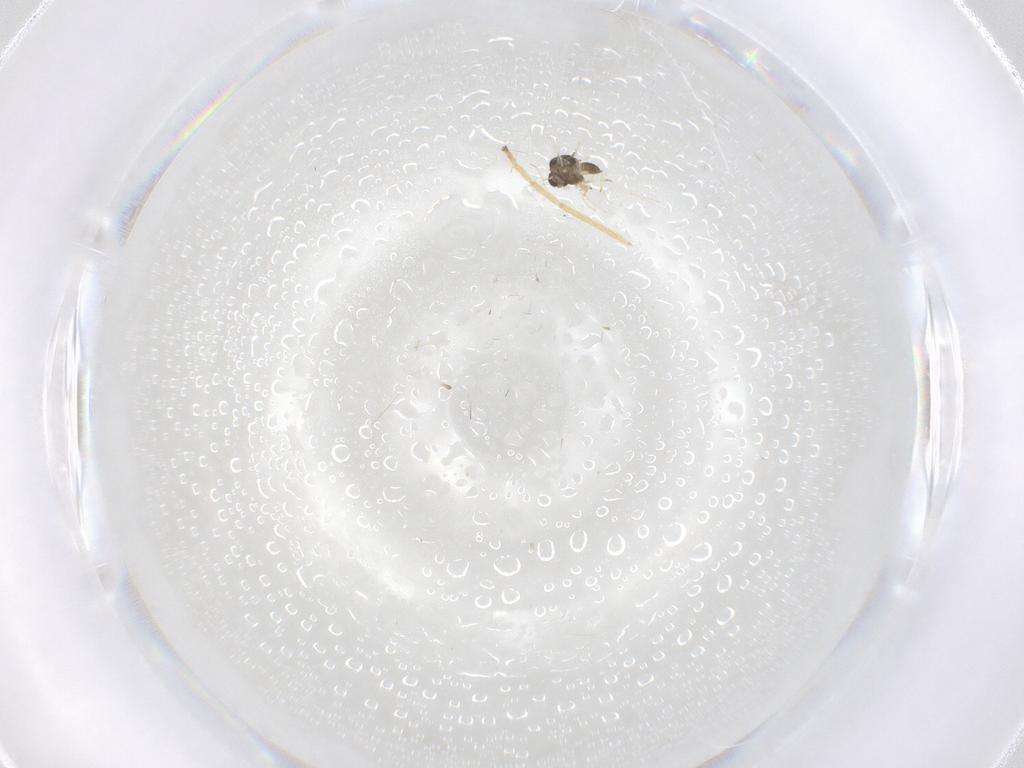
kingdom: Animalia
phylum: Arthropoda
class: Insecta
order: Diptera
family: Chironomidae
